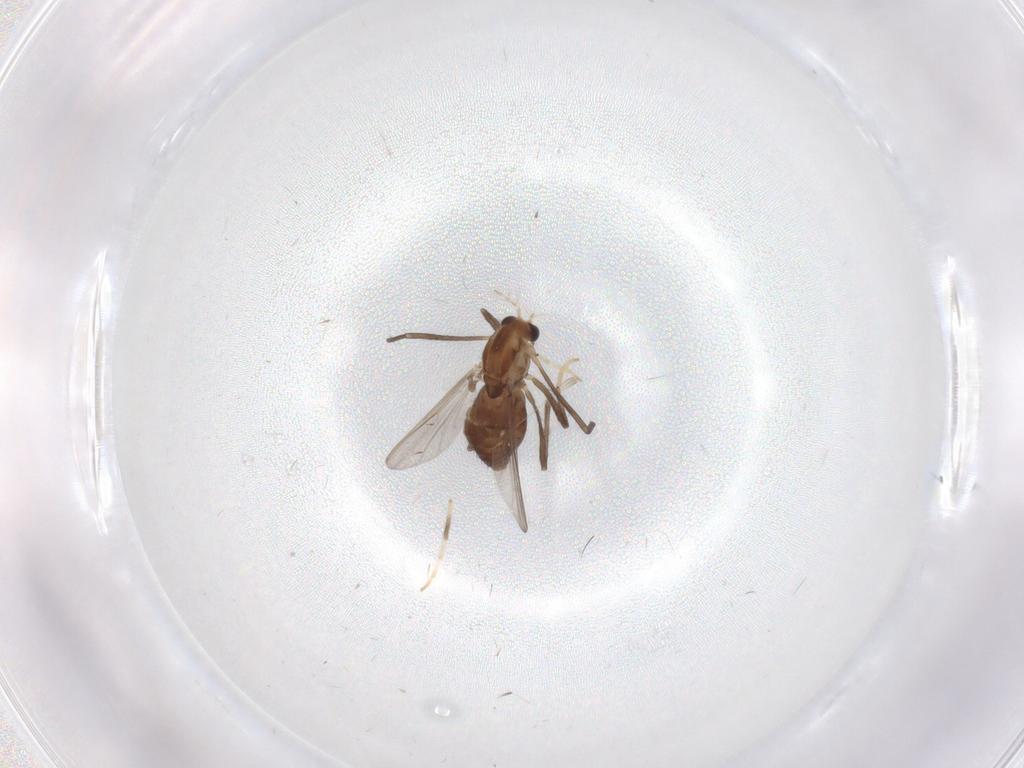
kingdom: Animalia
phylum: Arthropoda
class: Insecta
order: Diptera
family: Chironomidae
